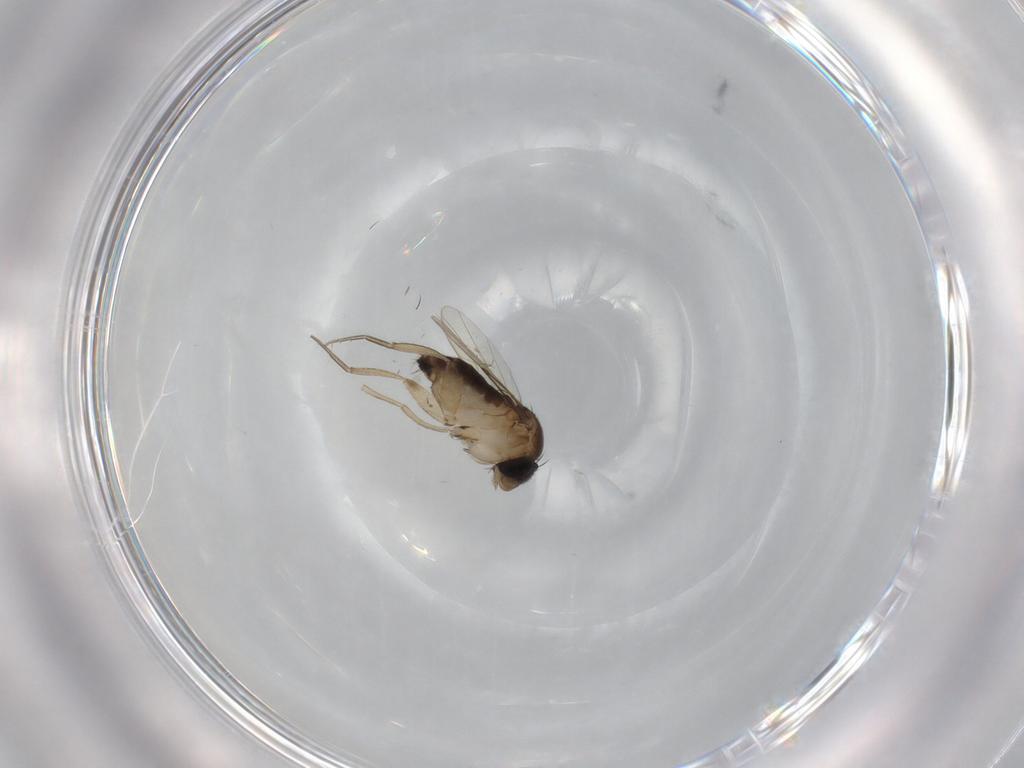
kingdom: Animalia
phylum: Arthropoda
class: Insecta
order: Diptera
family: Phoridae
